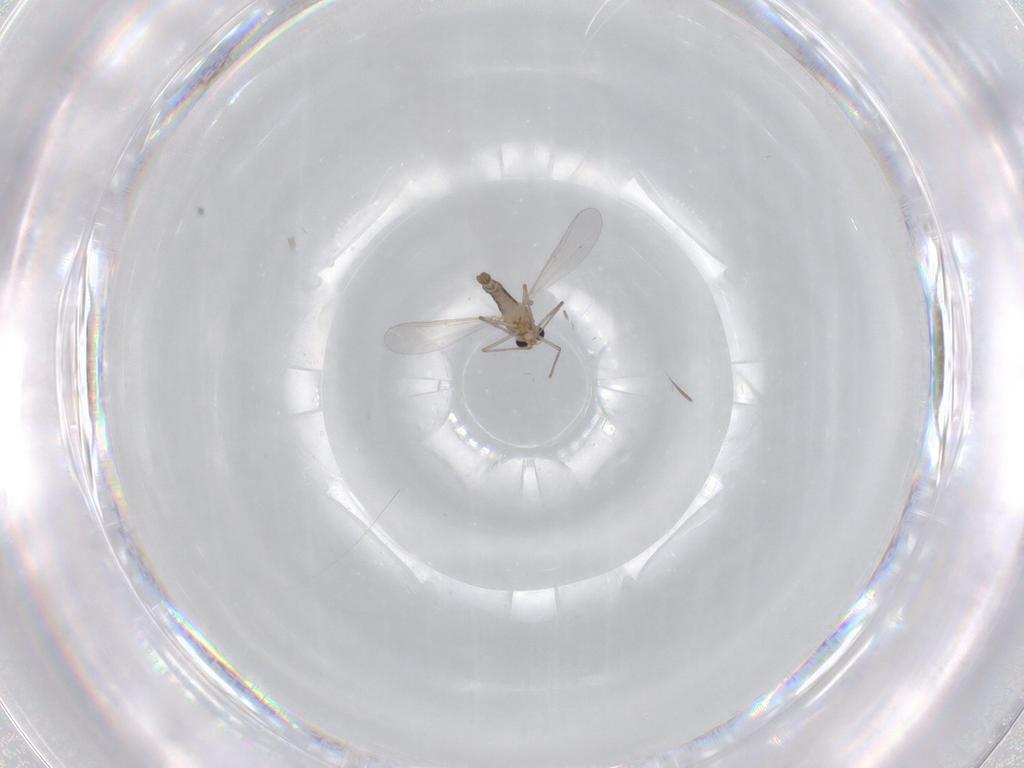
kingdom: Animalia
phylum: Arthropoda
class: Insecta
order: Diptera
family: Chironomidae
